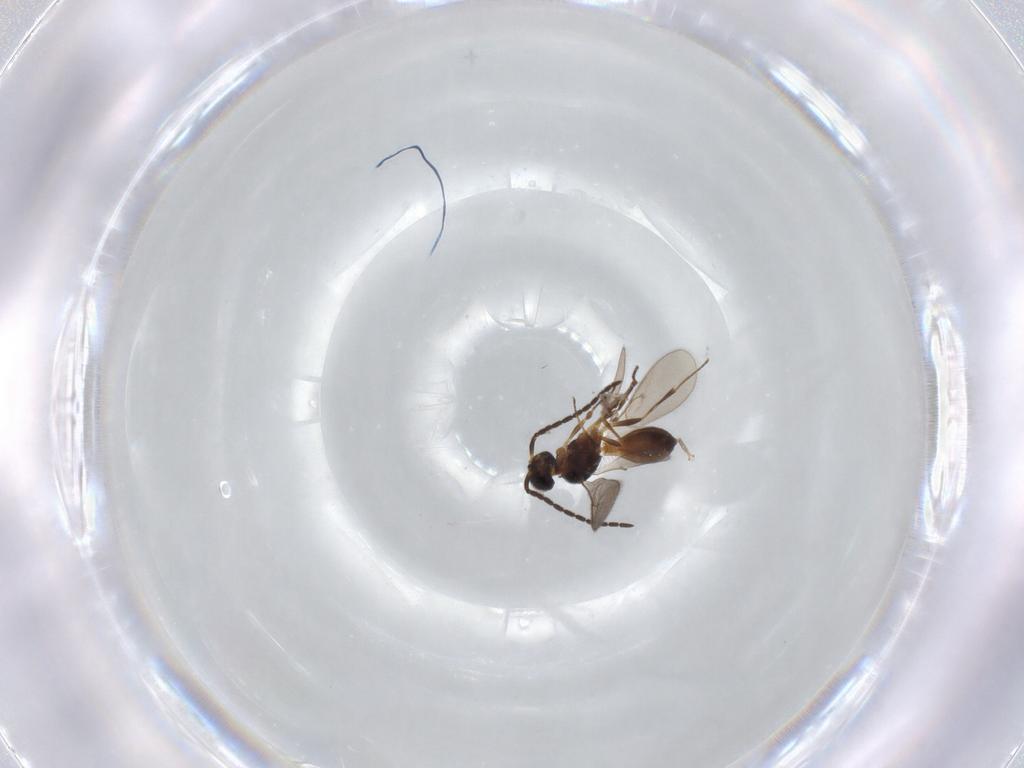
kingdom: Animalia
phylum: Arthropoda
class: Insecta
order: Hymenoptera
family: Scelionidae
